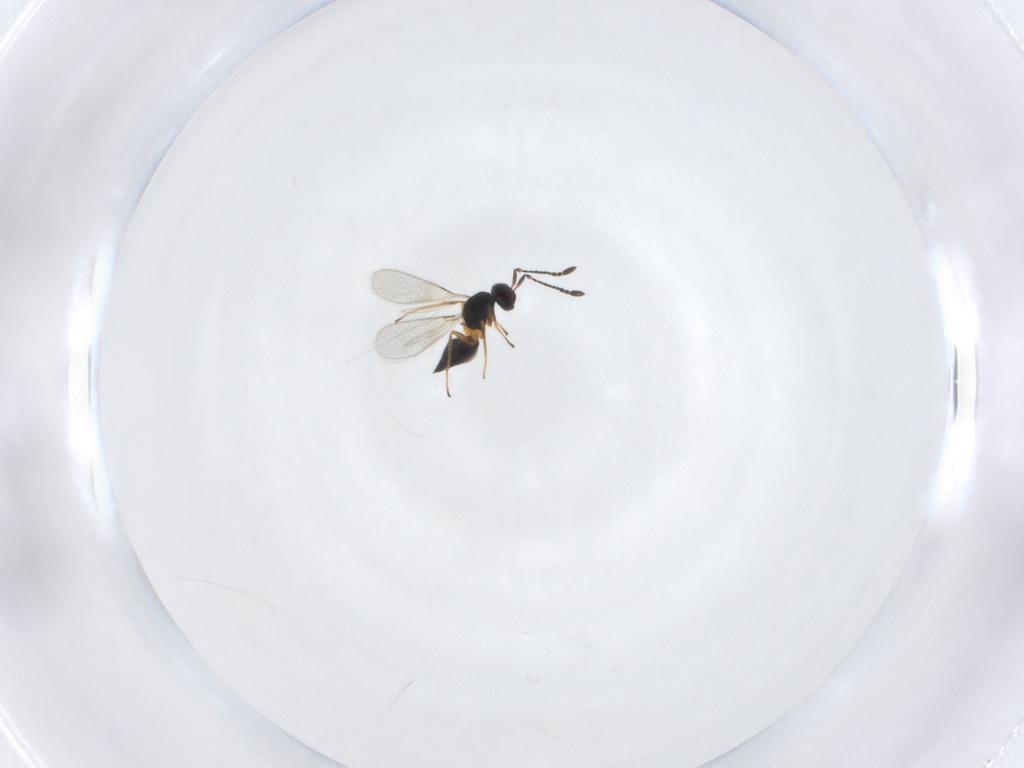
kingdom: Animalia
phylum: Arthropoda
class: Insecta
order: Hymenoptera
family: Mymaridae
